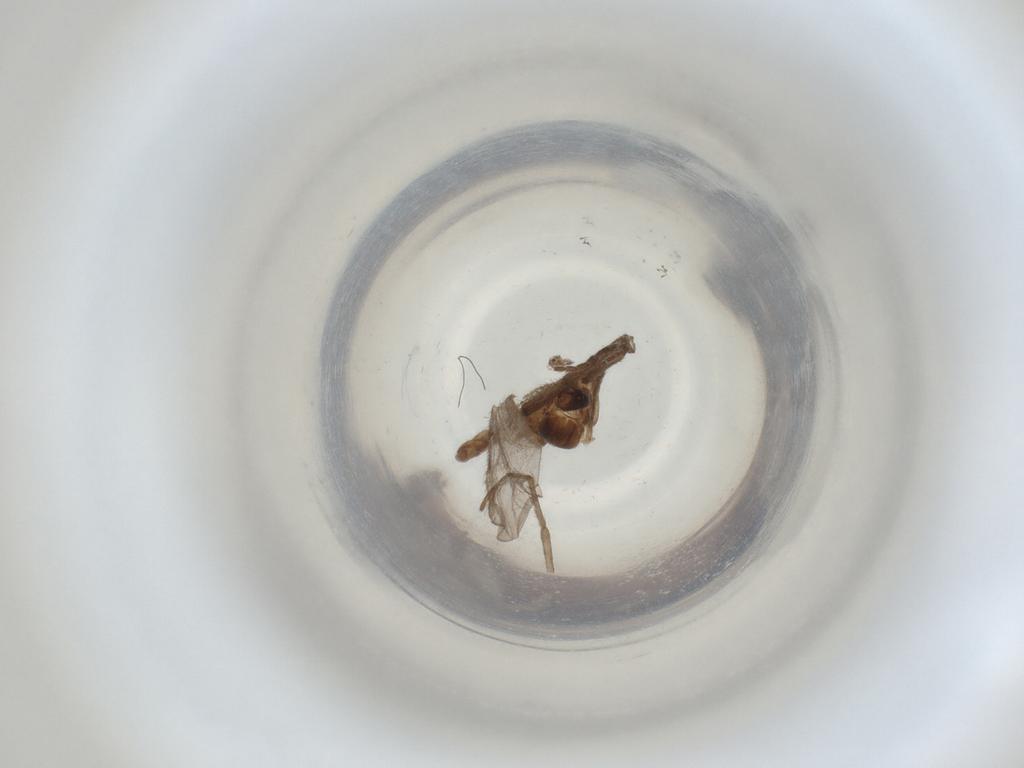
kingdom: Animalia
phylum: Arthropoda
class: Insecta
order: Diptera
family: Cecidomyiidae
